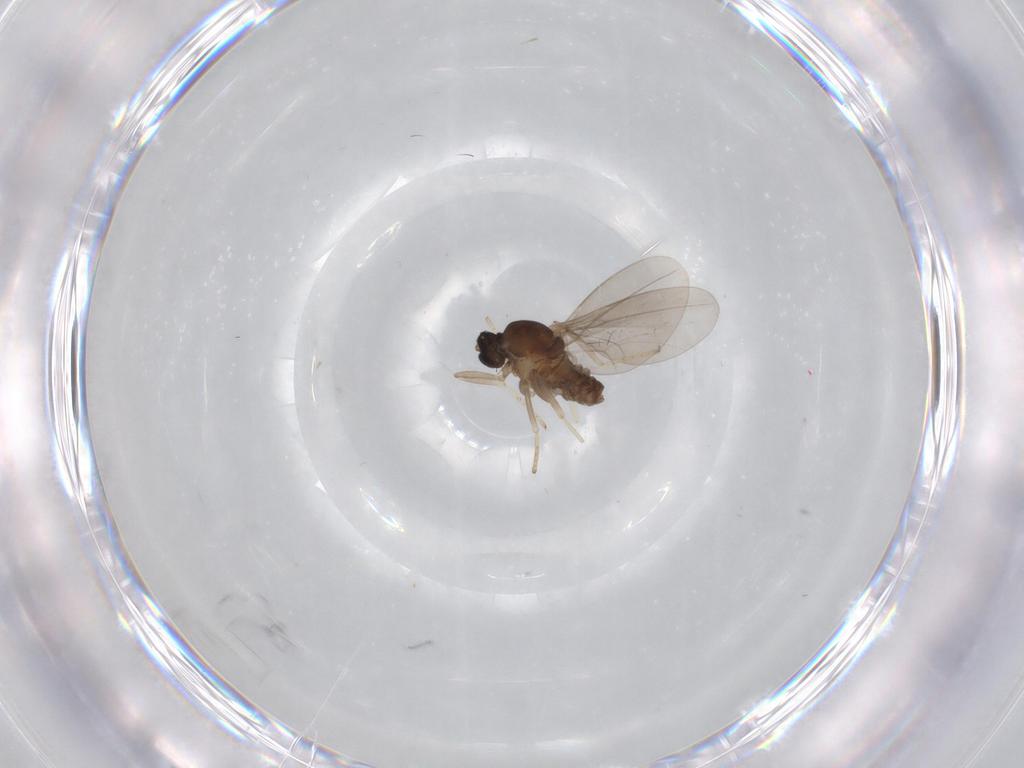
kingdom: Animalia
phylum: Arthropoda
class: Insecta
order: Diptera
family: Cecidomyiidae
